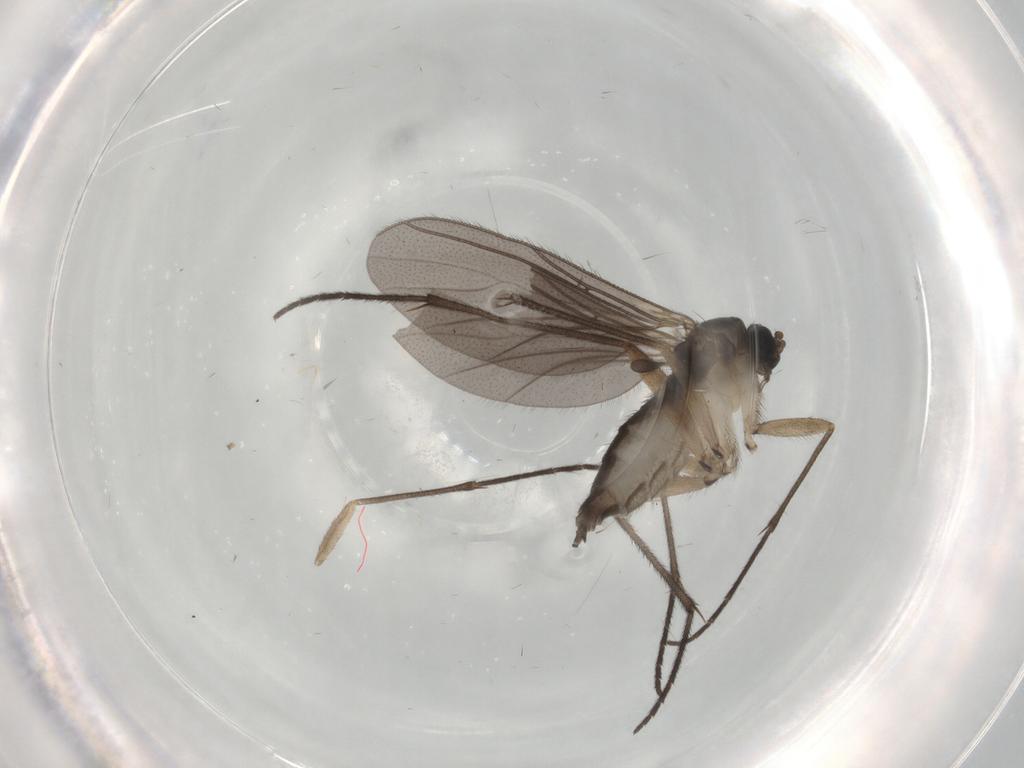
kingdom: Animalia
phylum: Arthropoda
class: Insecta
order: Diptera
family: Sciaridae
